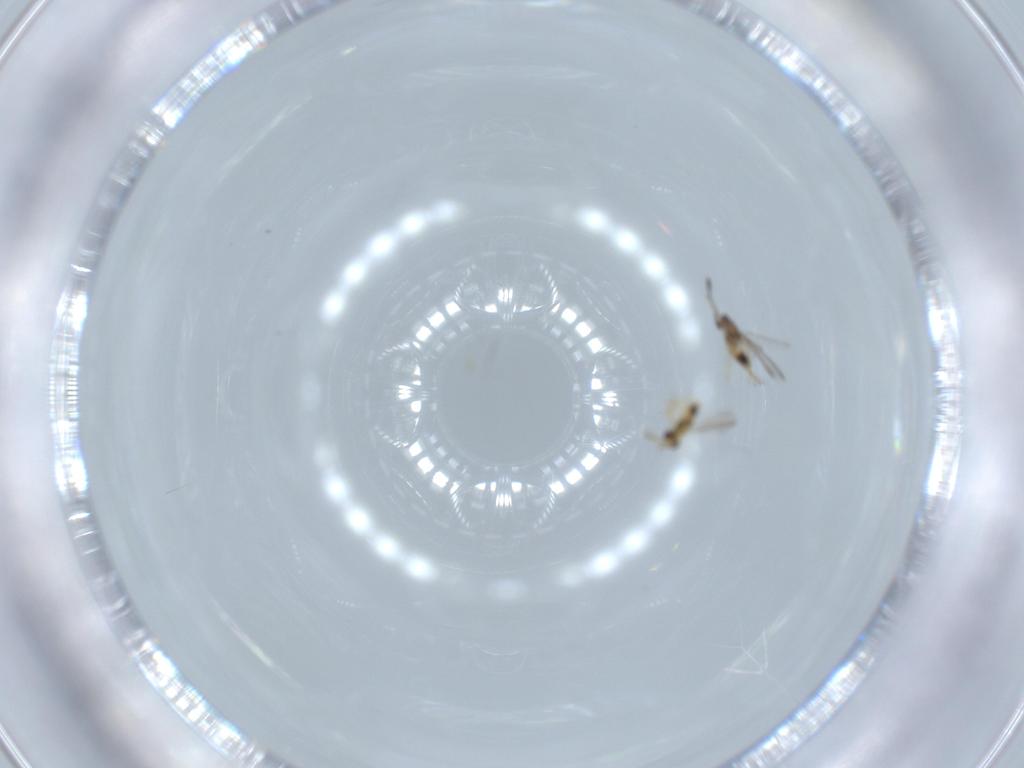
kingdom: Animalia
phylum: Arthropoda
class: Insecta
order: Hymenoptera
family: Aphelinidae
